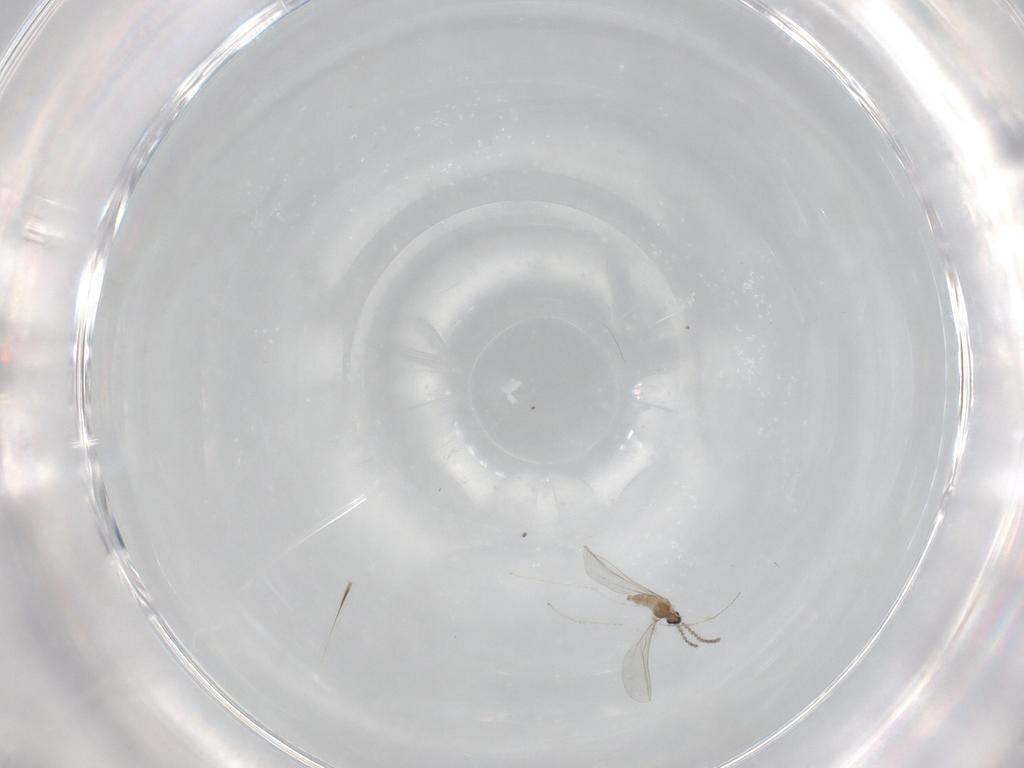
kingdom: Animalia
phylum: Arthropoda
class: Insecta
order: Diptera
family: Cecidomyiidae
